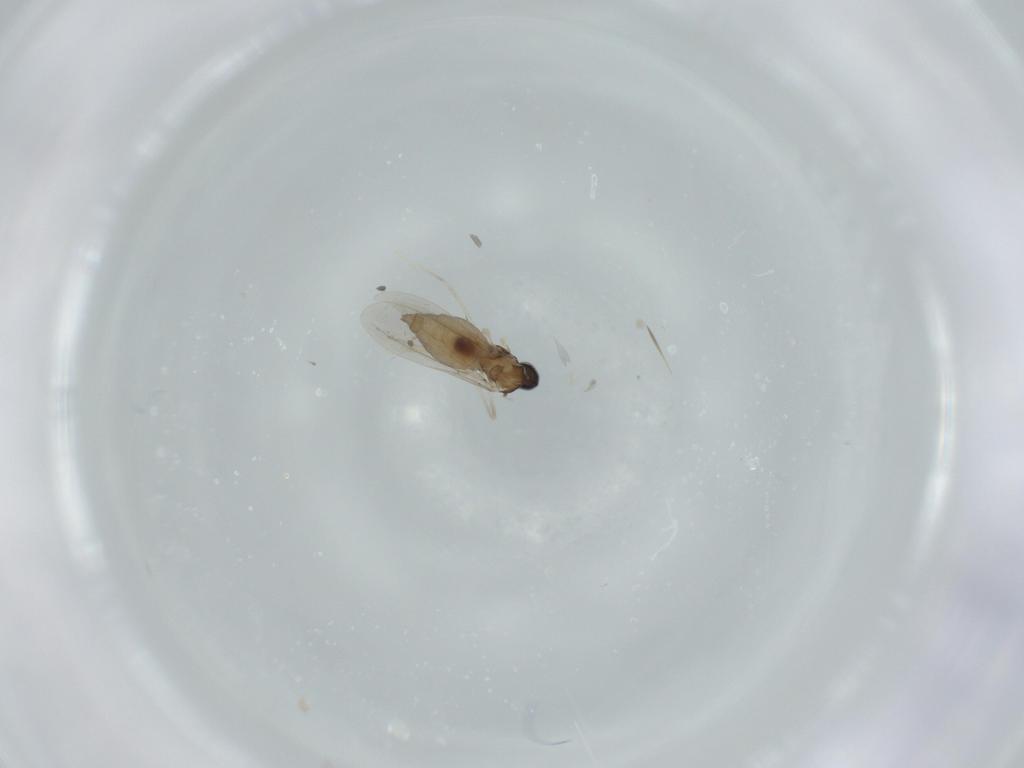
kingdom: Animalia
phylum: Arthropoda
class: Insecta
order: Diptera
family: Cecidomyiidae
